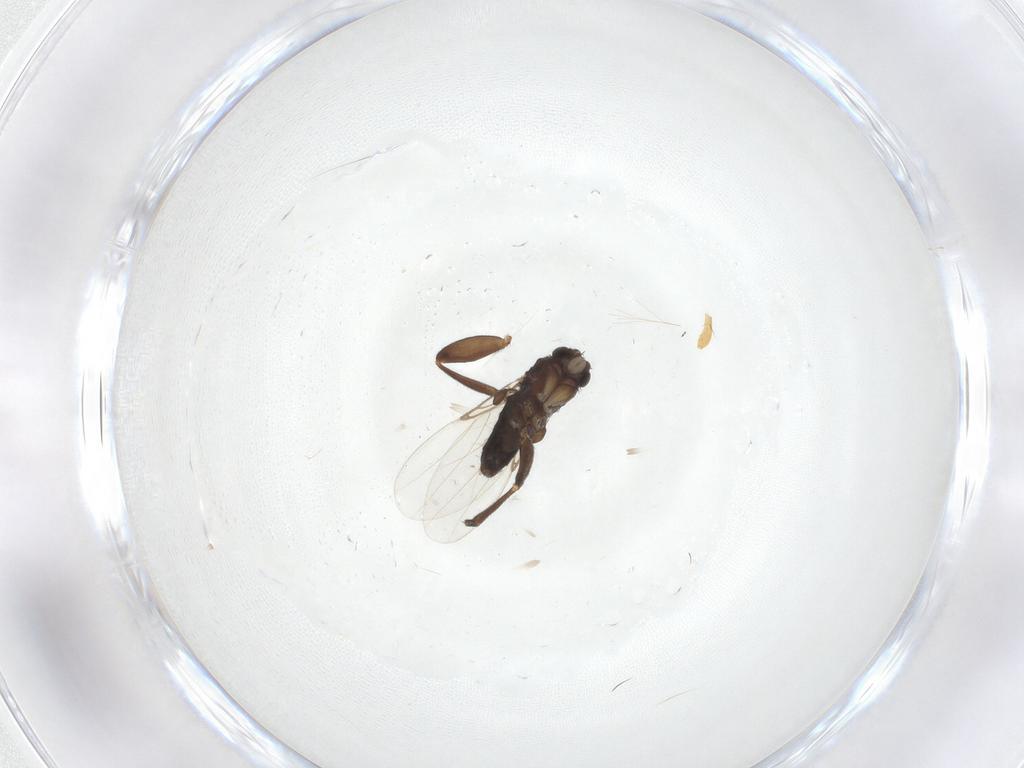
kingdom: Animalia
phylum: Arthropoda
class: Insecta
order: Diptera
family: Phoridae
